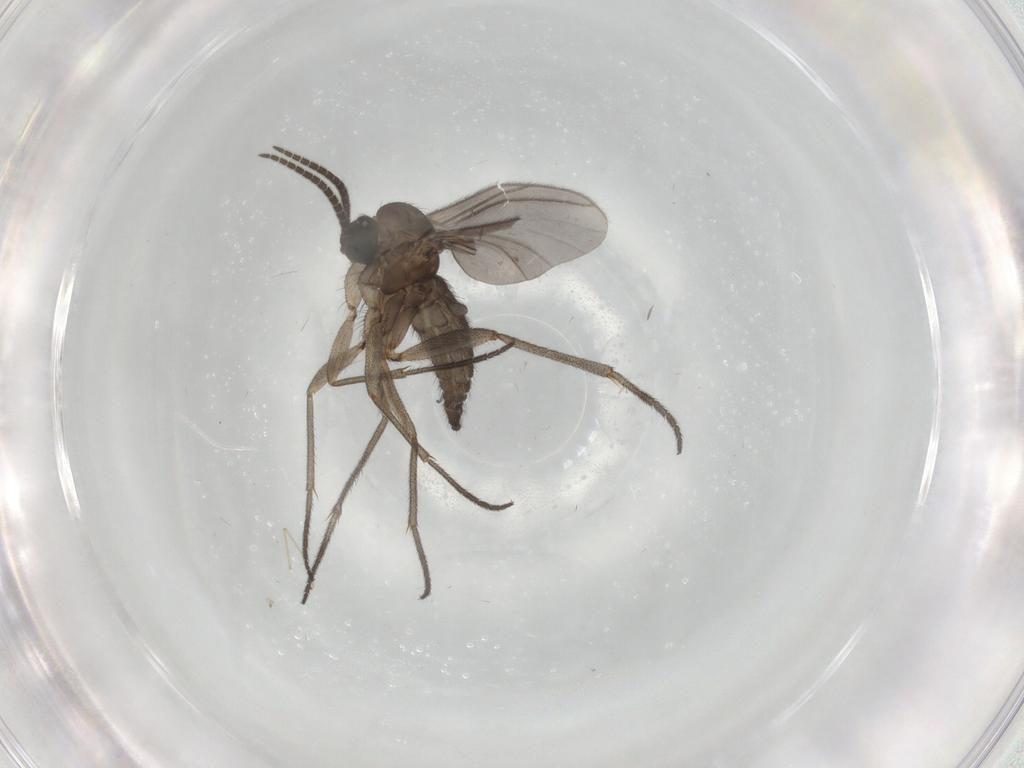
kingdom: Animalia
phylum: Arthropoda
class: Insecta
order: Diptera
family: Sciaridae
